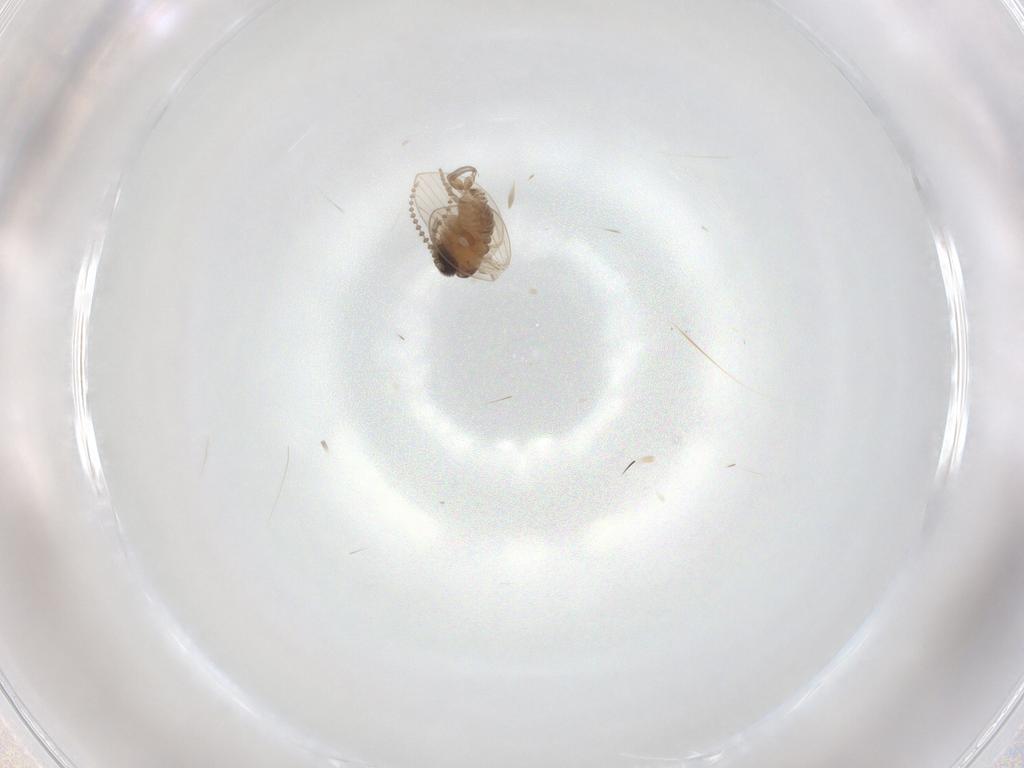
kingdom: Animalia
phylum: Arthropoda
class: Insecta
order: Diptera
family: Psychodidae
